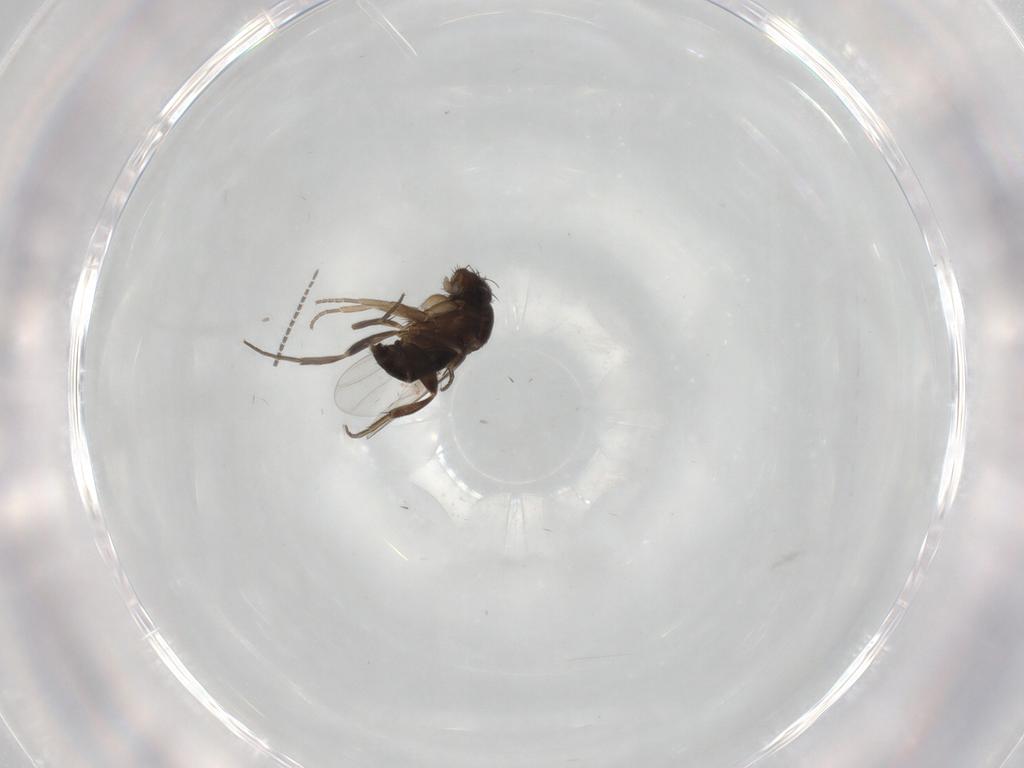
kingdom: Animalia
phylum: Arthropoda
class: Insecta
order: Diptera
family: Phoridae
